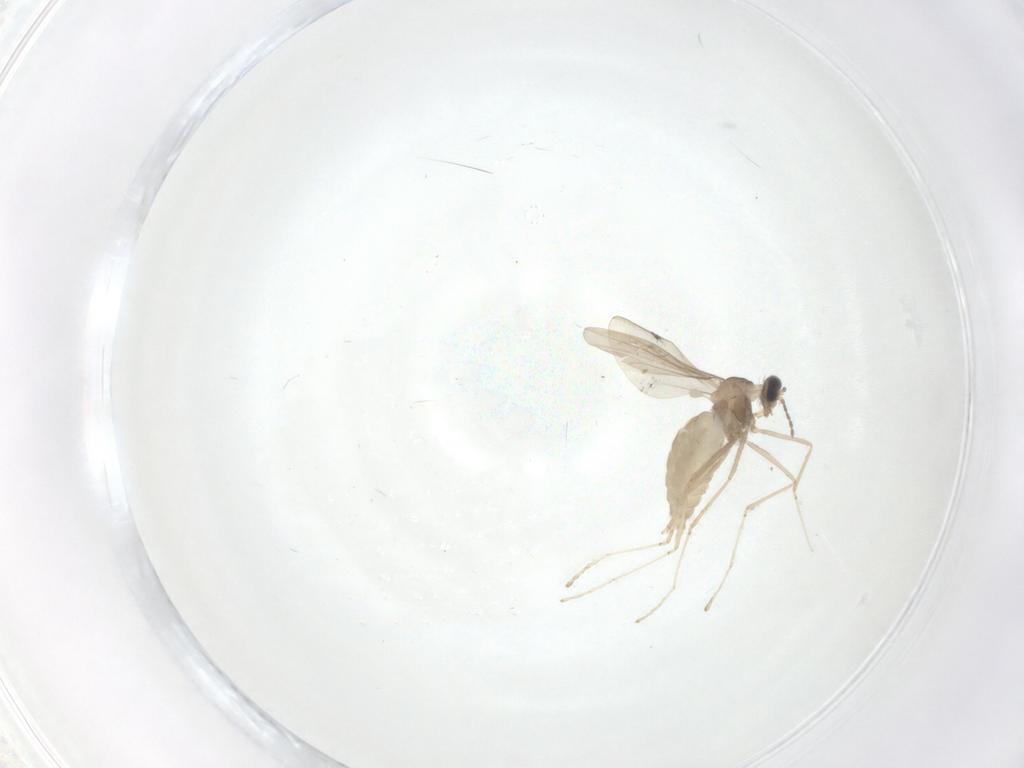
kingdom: Animalia
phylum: Arthropoda
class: Insecta
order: Diptera
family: Cecidomyiidae
